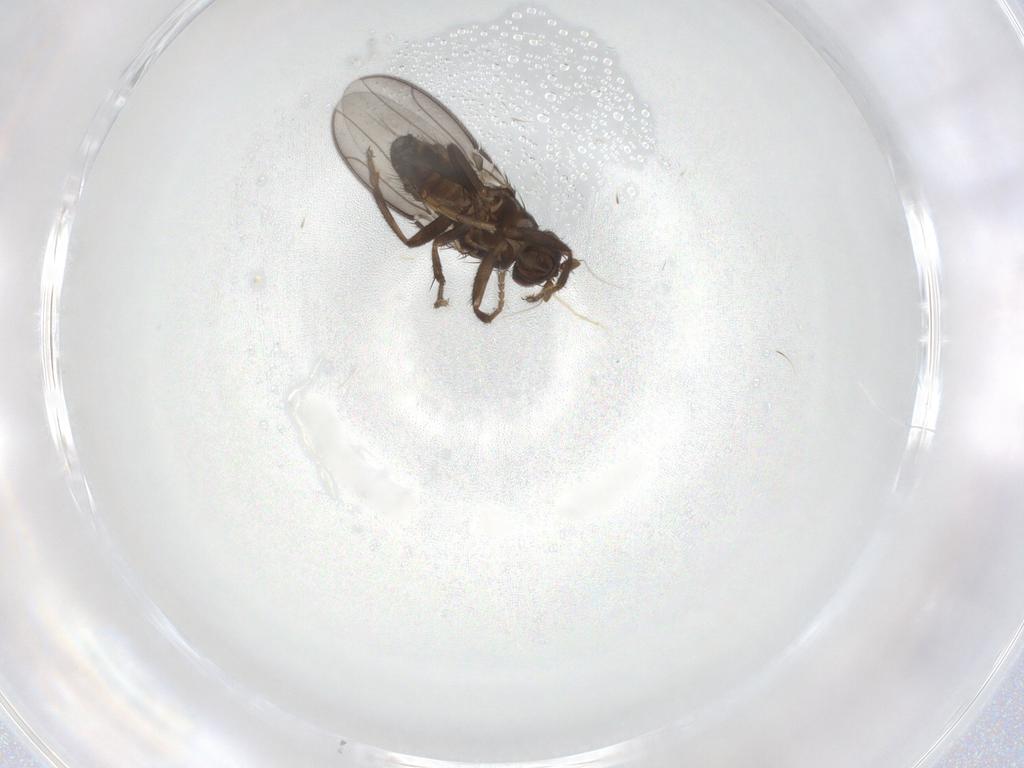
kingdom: Animalia
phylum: Arthropoda
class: Insecta
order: Diptera
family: Sphaeroceridae
